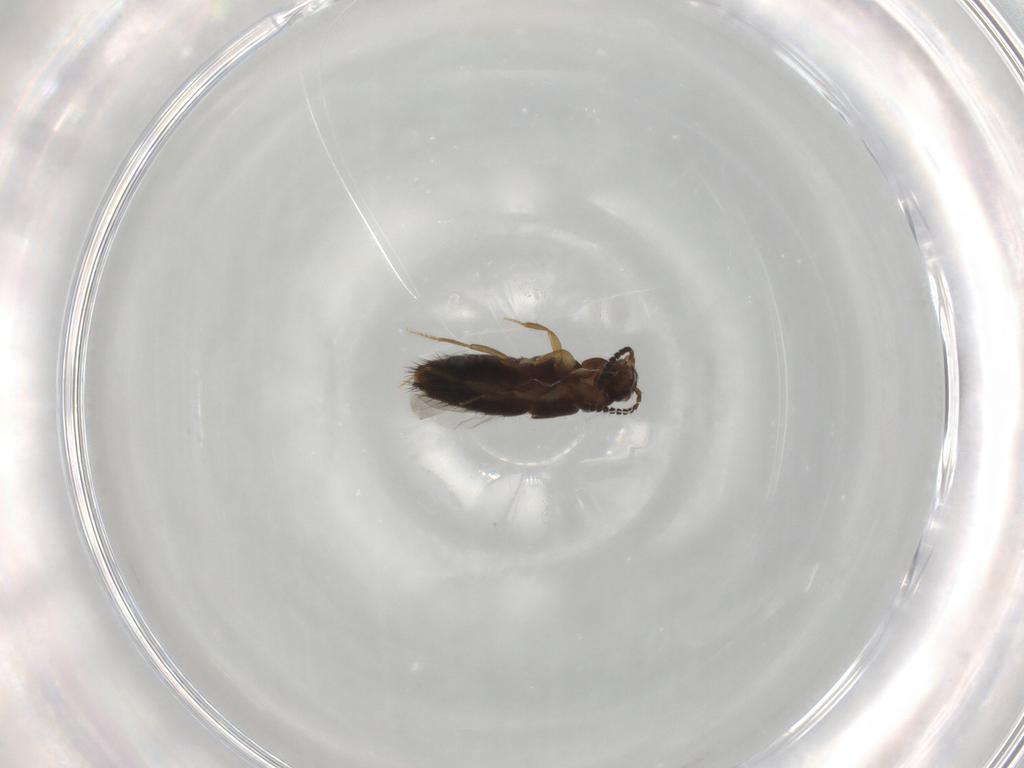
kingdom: Animalia
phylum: Arthropoda
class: Insecta
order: Coleoptera
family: Staphylinidae
